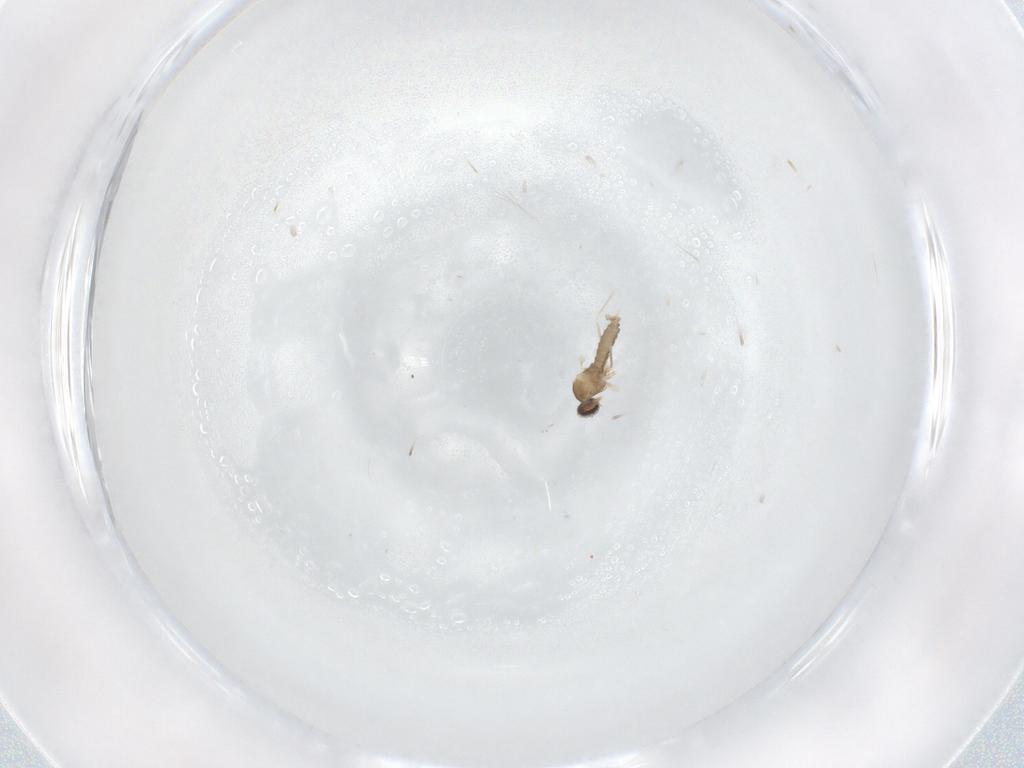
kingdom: Animalia
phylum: Arthropoda
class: Insecta
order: Diptera
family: Cecidomyiidae
